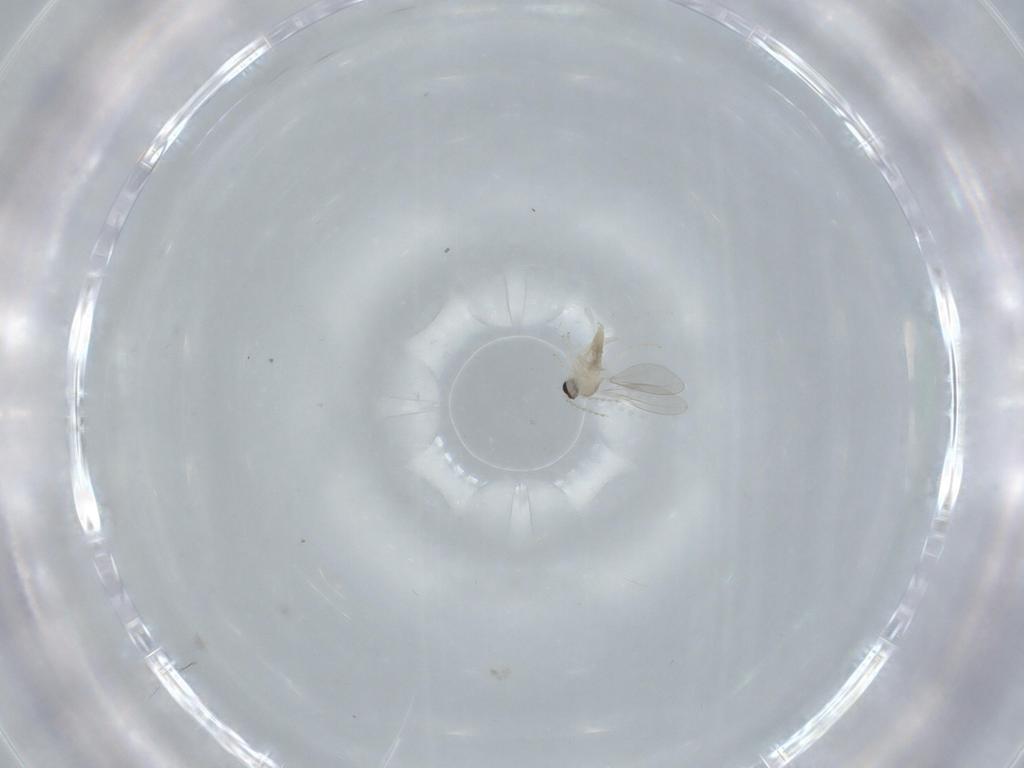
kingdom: Animalia
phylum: Arthropoda
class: Insecta
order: Diptera
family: Cecidomyiidae
